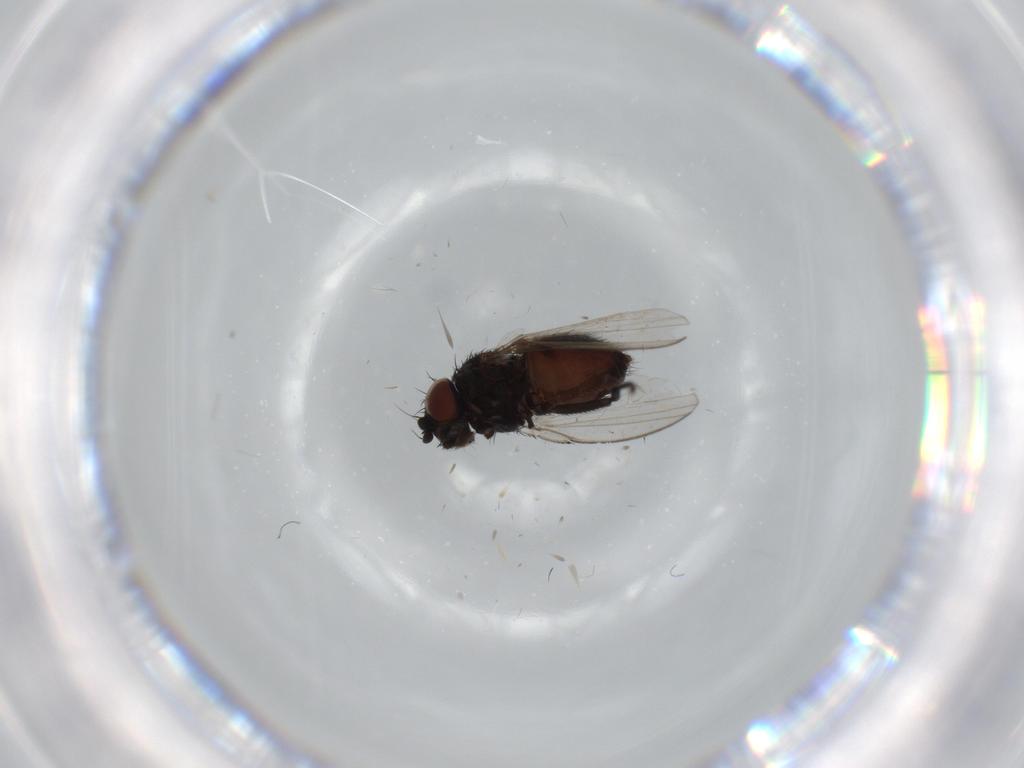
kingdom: Animalia
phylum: Arthropoda
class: Insecta
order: Diptera
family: Milichiidae
